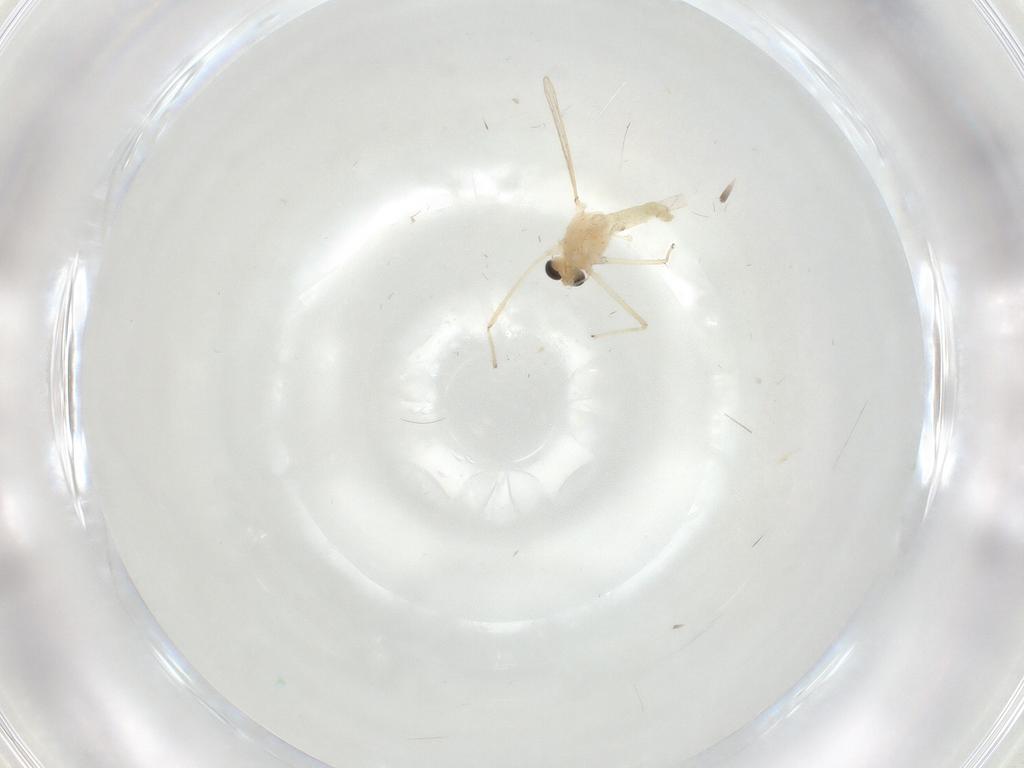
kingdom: Animalia
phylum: Arthropoda
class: Insecta
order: Diptera
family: Chironomidae
